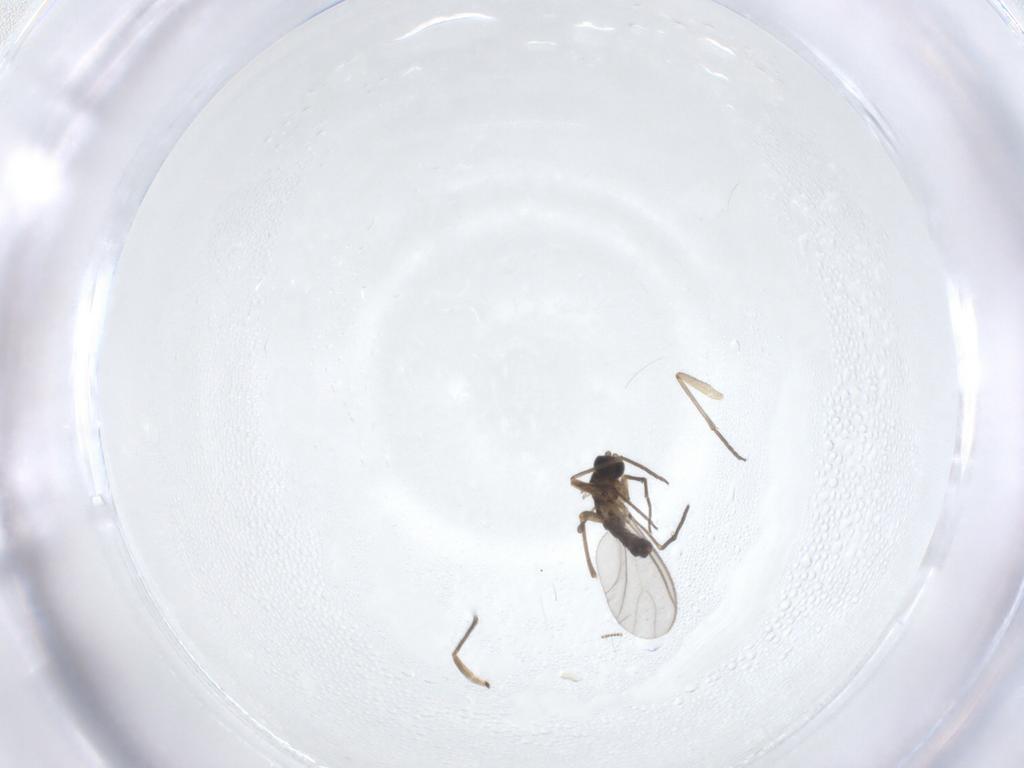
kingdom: Animalia
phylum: Arthropoda
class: Insecta
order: Diptera
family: Sciaridae
